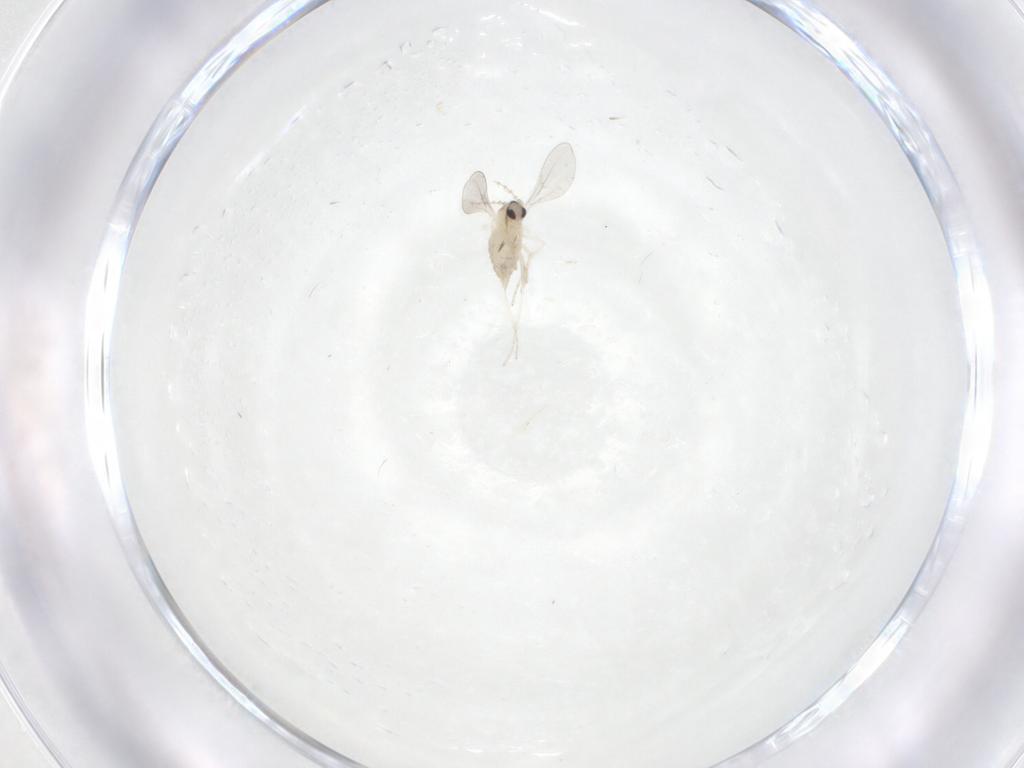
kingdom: Animalia
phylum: Arthropoda
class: Insecta
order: Diptera
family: Cecidomyiidae
